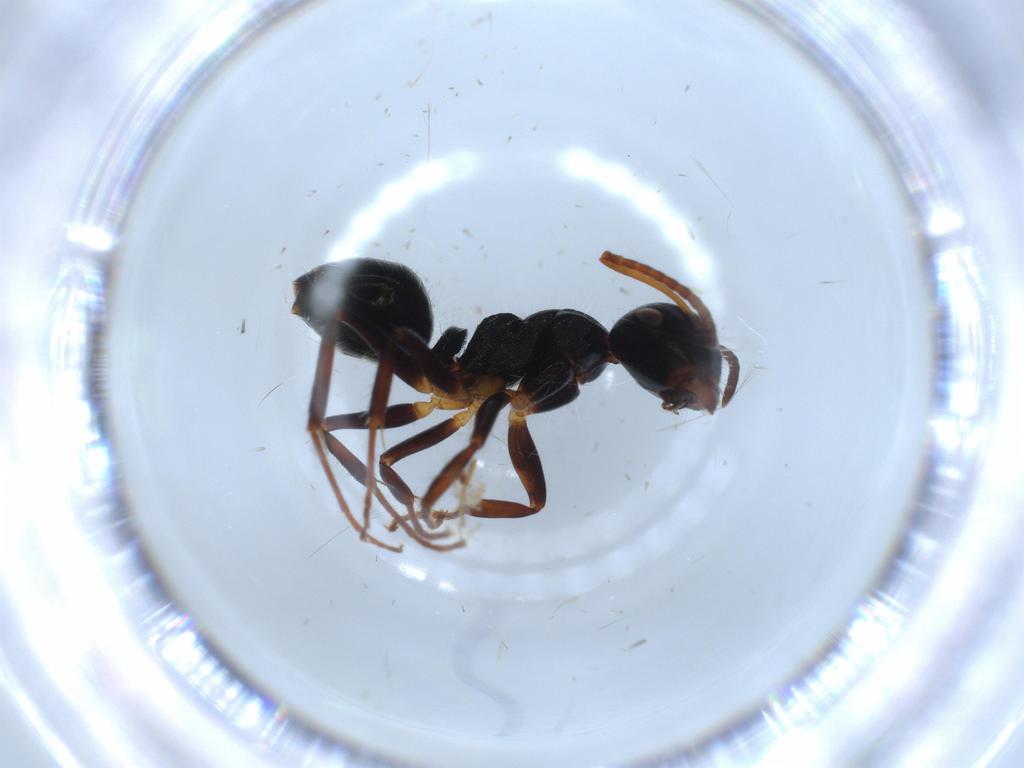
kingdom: Animalia
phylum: Arthropoda
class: Insecta
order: Hymenoptera
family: Formicidae
